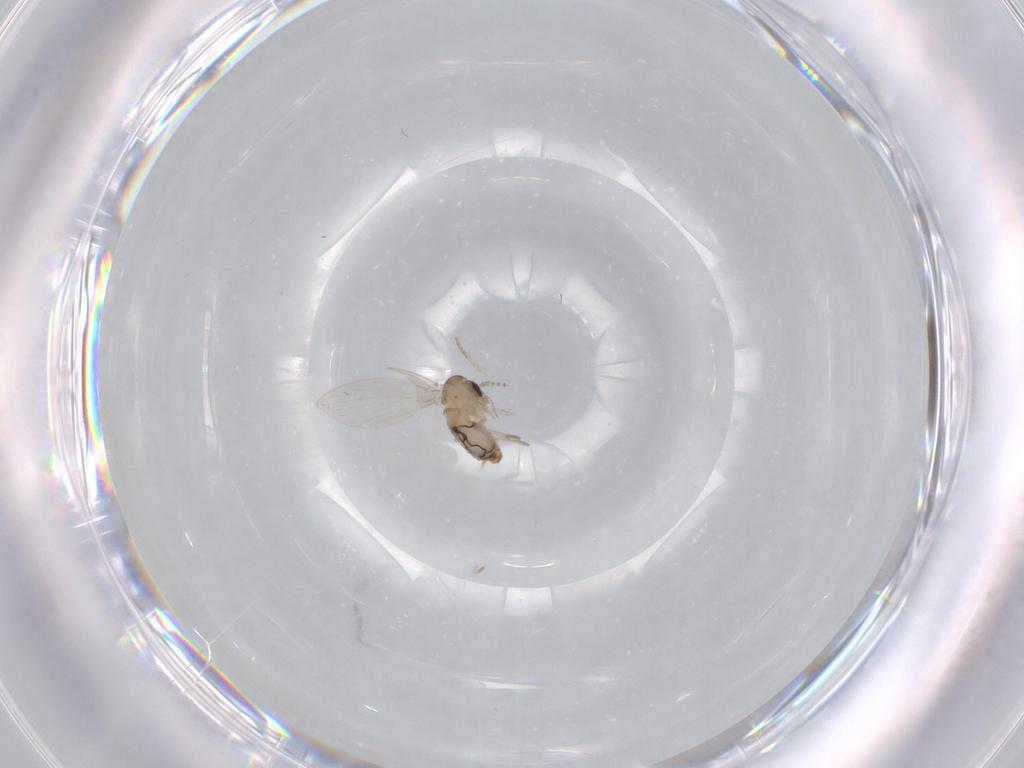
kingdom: Animalia
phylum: Arthropoda
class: Insecta
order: Diptera
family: Psychodidae
